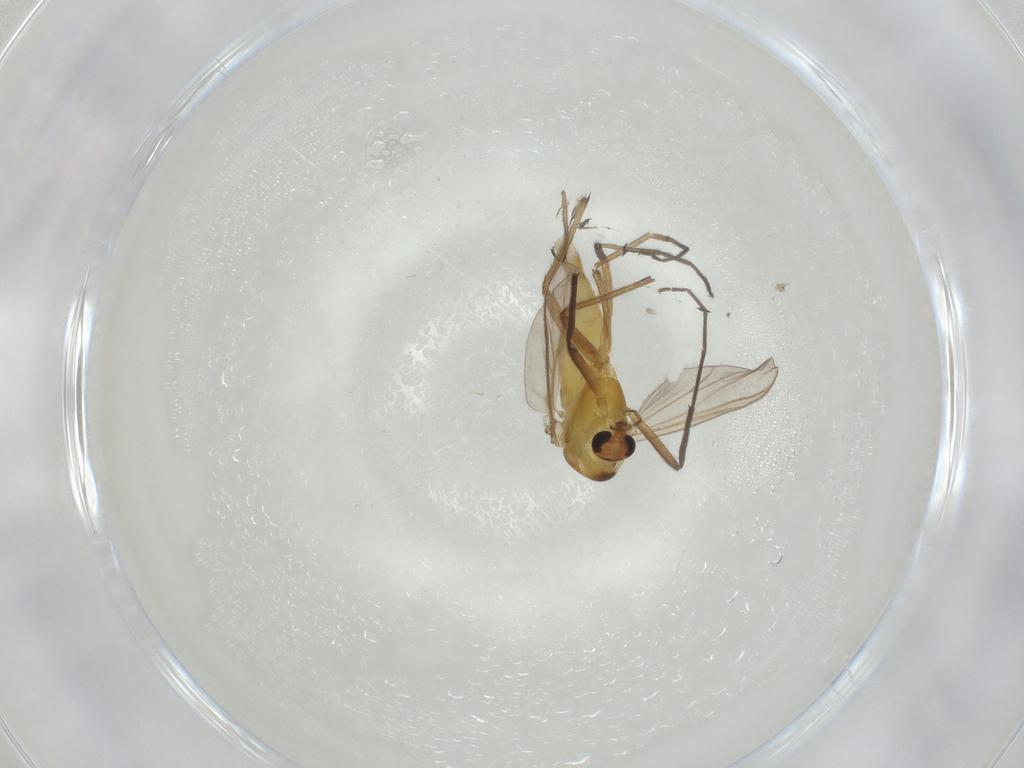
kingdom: Animalia
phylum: Arthropoda
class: Insecta
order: Diptera
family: Chironomidae
